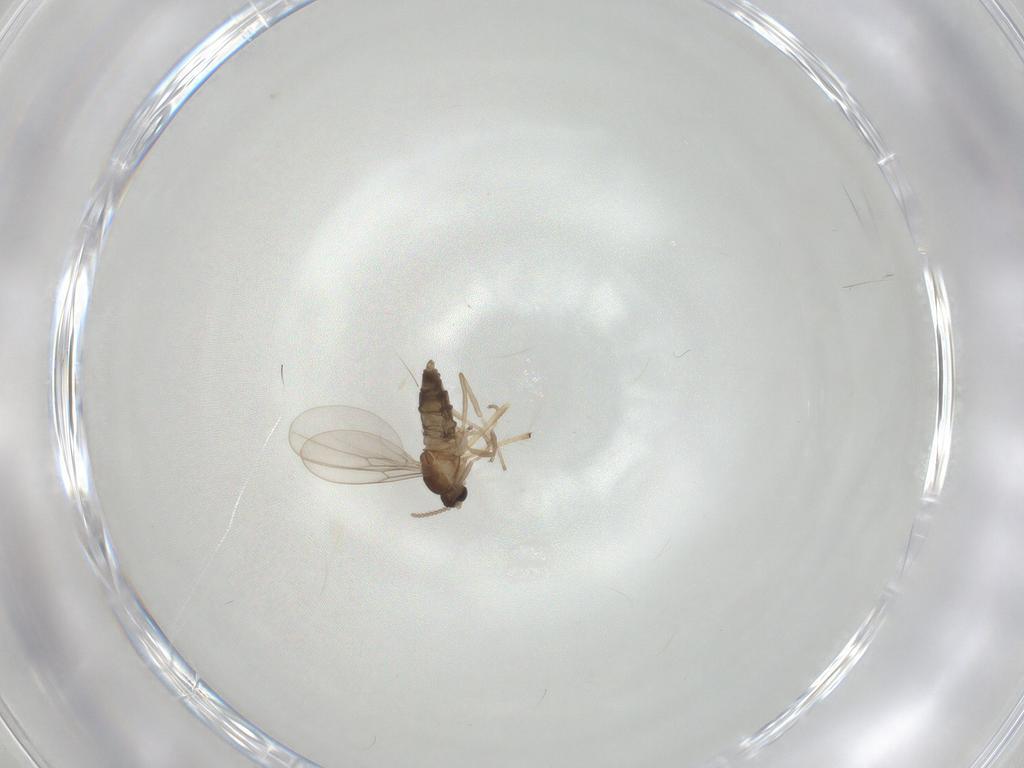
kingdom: Animalia
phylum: Arthropoda
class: Insecta
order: Diptera
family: Cecidomyiidae
